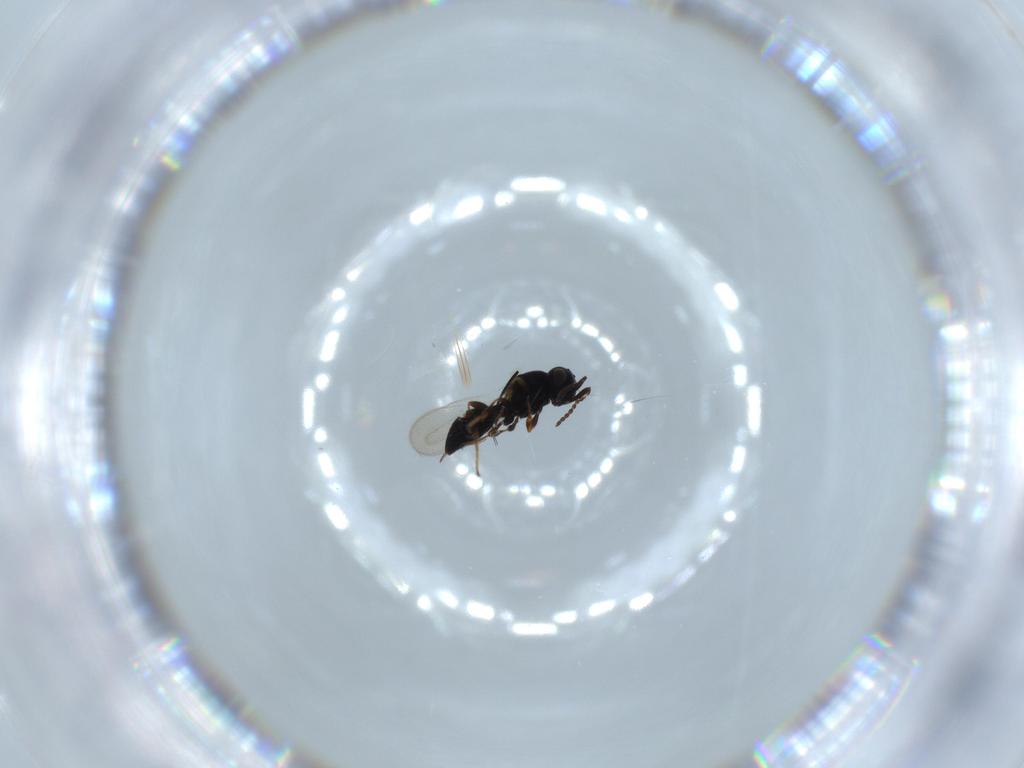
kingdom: Animalia
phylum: Arthropoda
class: Insecta
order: Hymenoptera
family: Platygastridae
